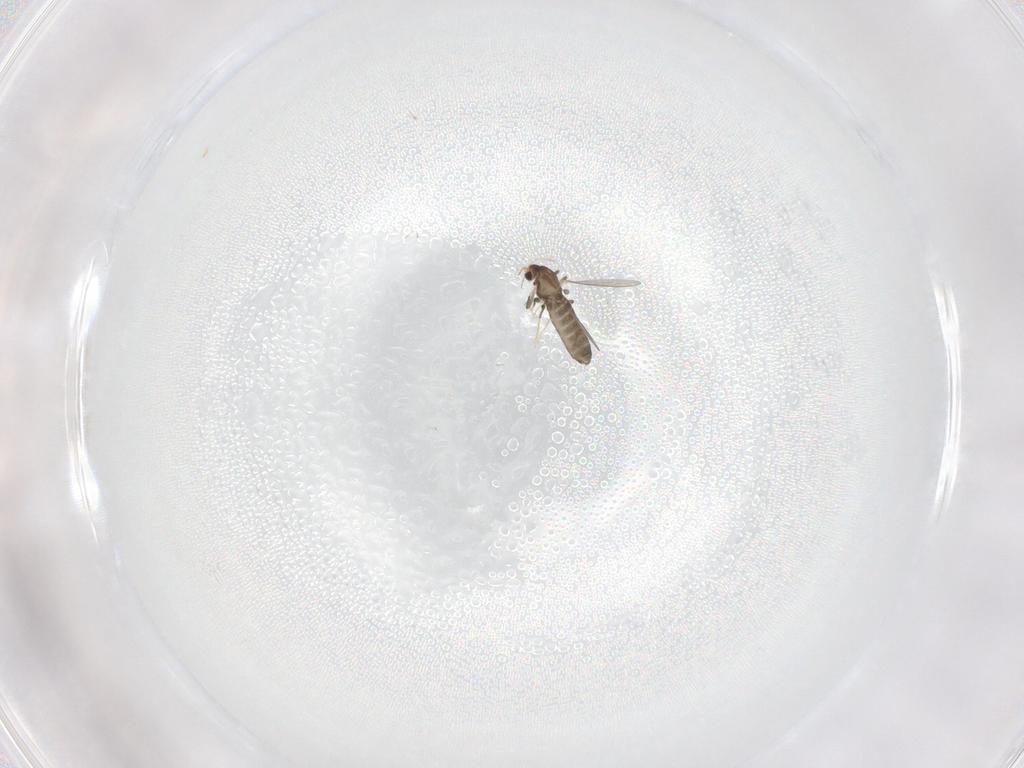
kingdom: Animalia
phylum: Arthropoda
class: Insecta
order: Diptera
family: Chironomidae
